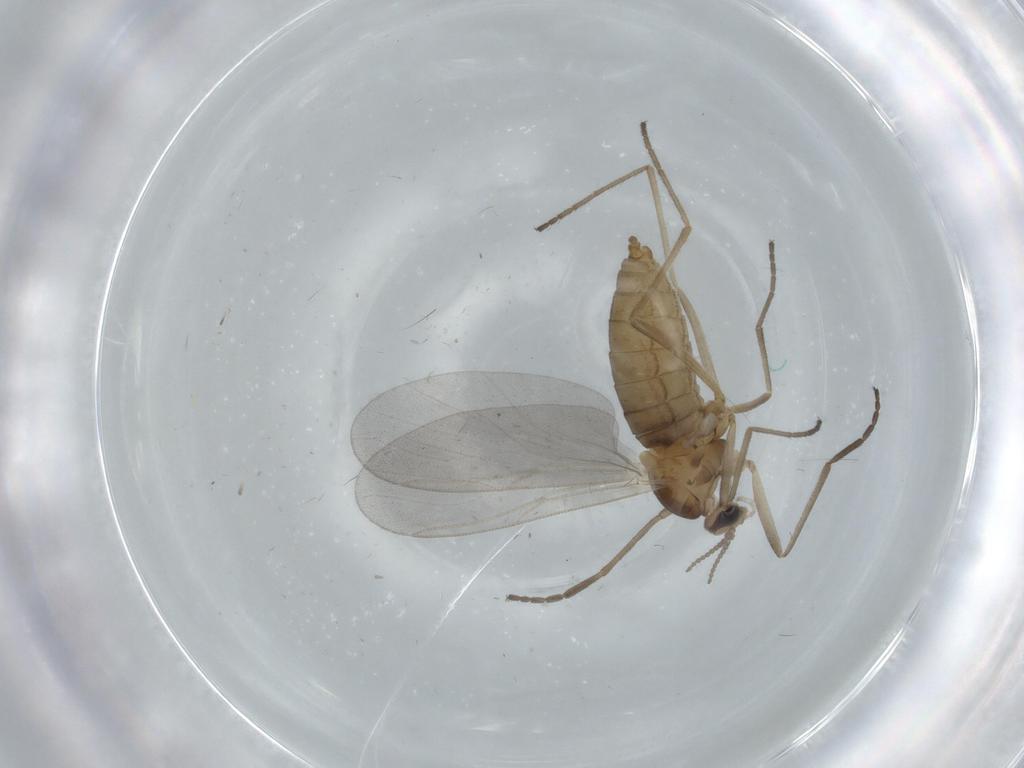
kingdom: Animalia
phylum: Arthropoda
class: Insecta
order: Diptera
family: Cecidomyiidae
